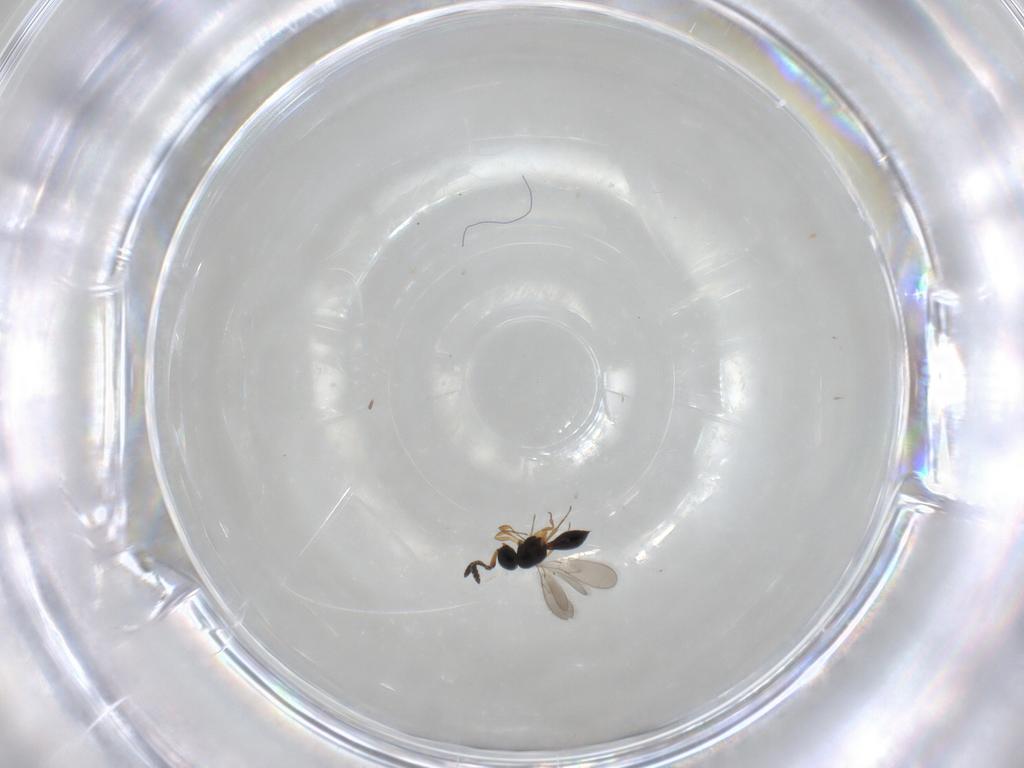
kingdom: Animalia
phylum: Arthropoda
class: Insecta
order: Hymenoptera
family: Scelionidae
